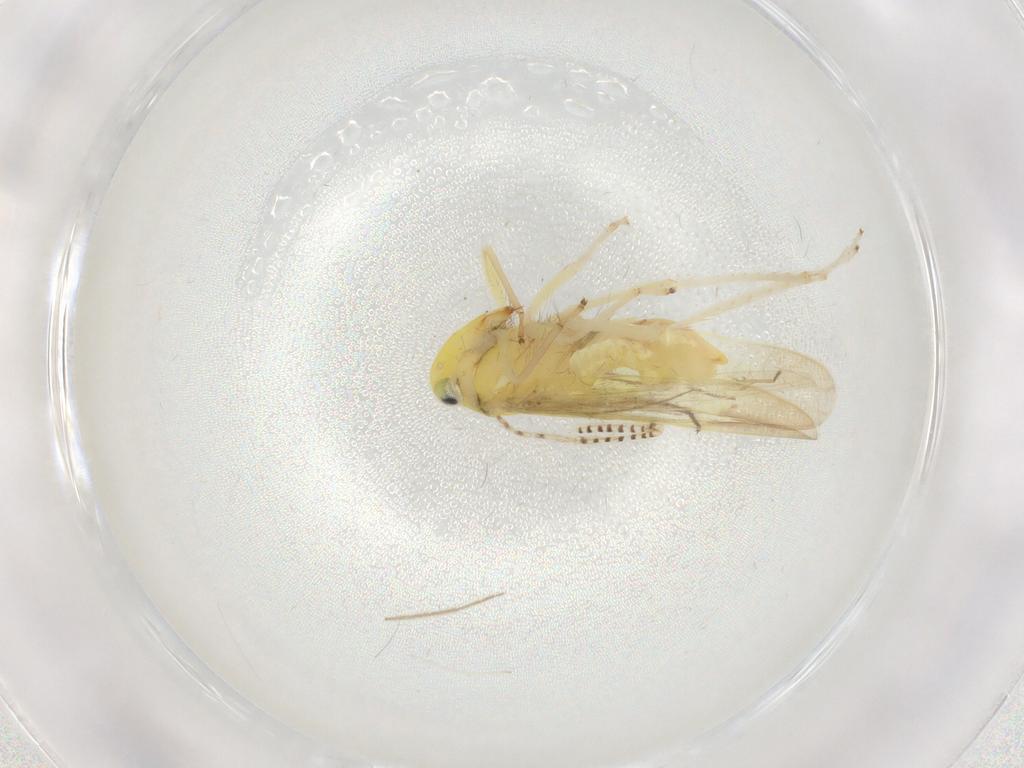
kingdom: Animalia
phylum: Arthropoda
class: Insecta
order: Hemiptera
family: Cicadellidae
